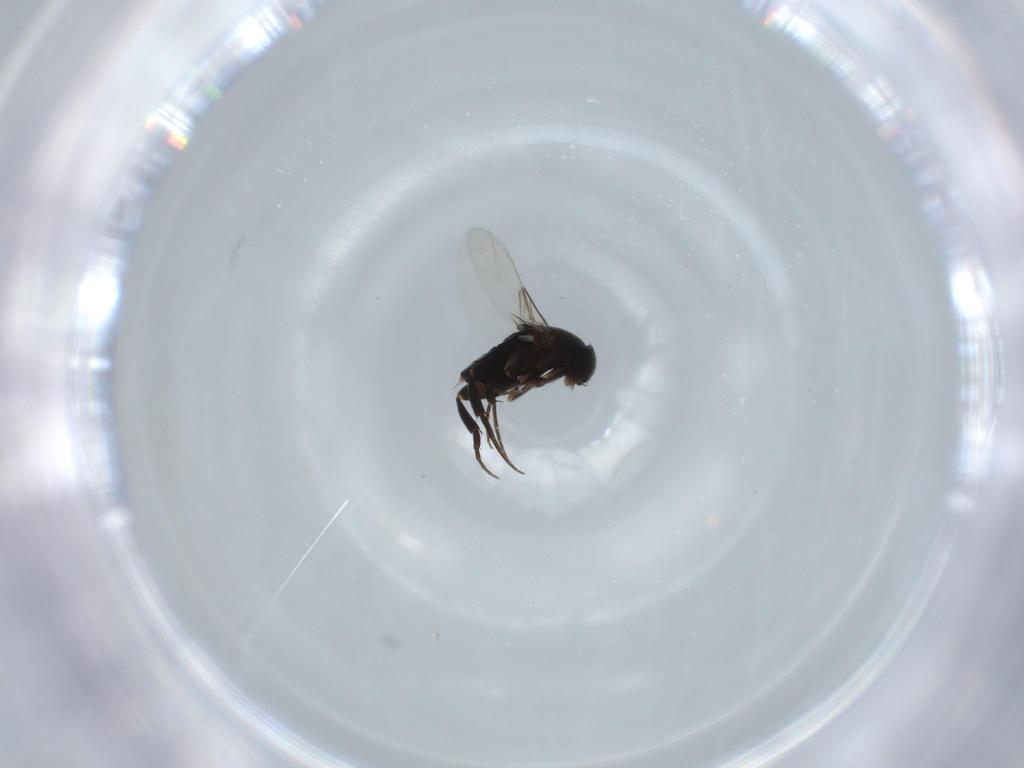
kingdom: Animalia
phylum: Arthropoda
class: Insecta
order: Diptera
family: Phoridae
